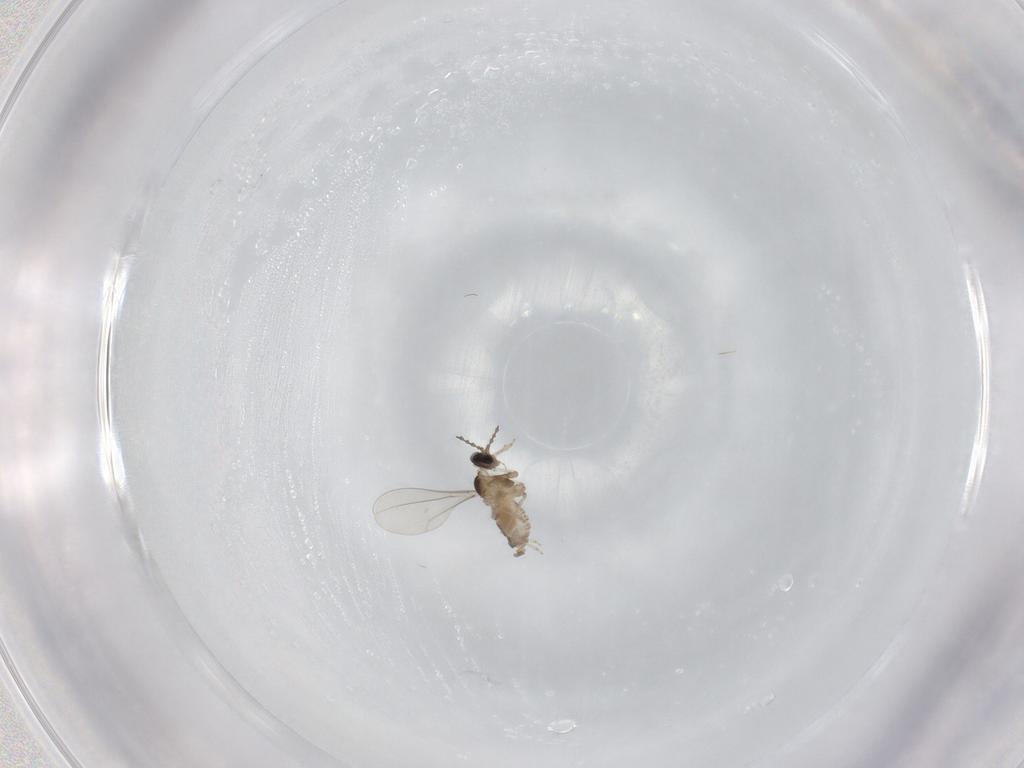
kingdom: Animalia
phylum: Arthropoda
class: Insecta
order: Diptera
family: Cecidomyiidae
